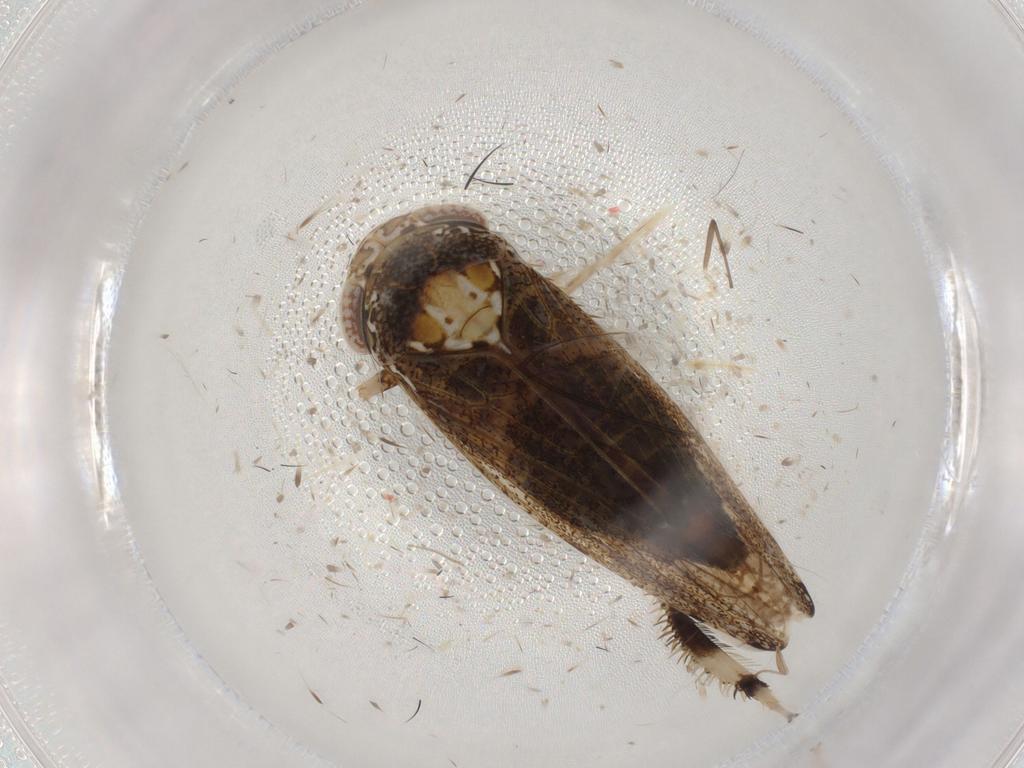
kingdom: Animalia
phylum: Arthropoda
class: Insecta
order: Hemiptera
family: Cicadellidae
